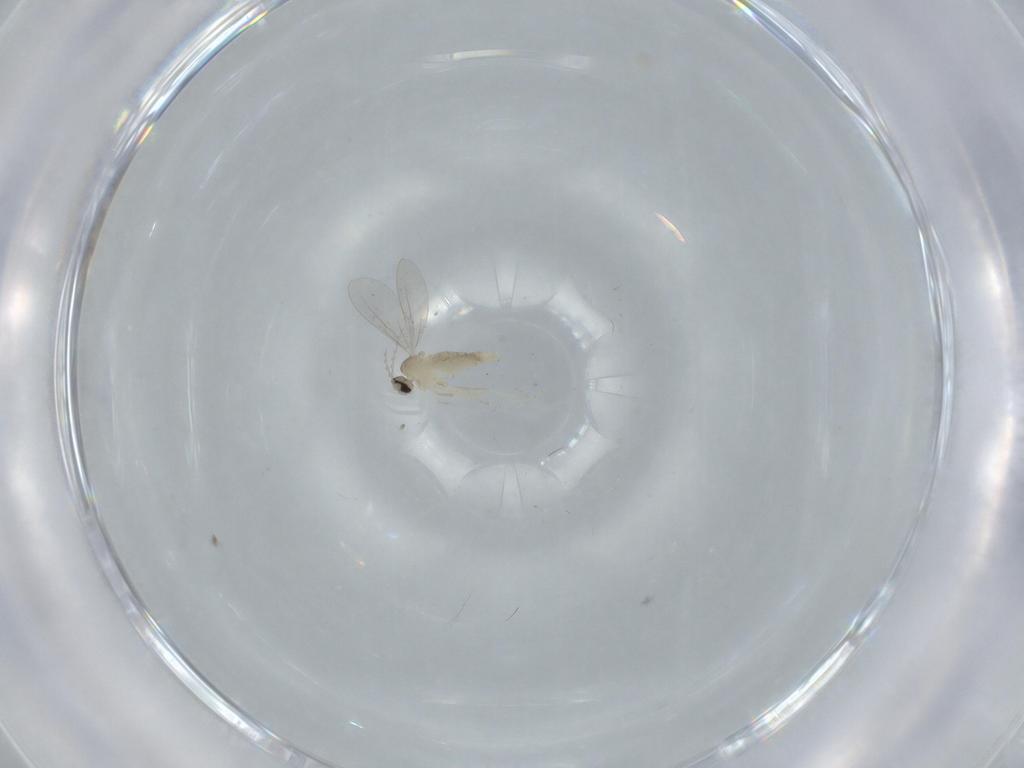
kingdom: Animalia
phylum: Arthropoda
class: Insecta
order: Diptera
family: Cecidomyiidae
